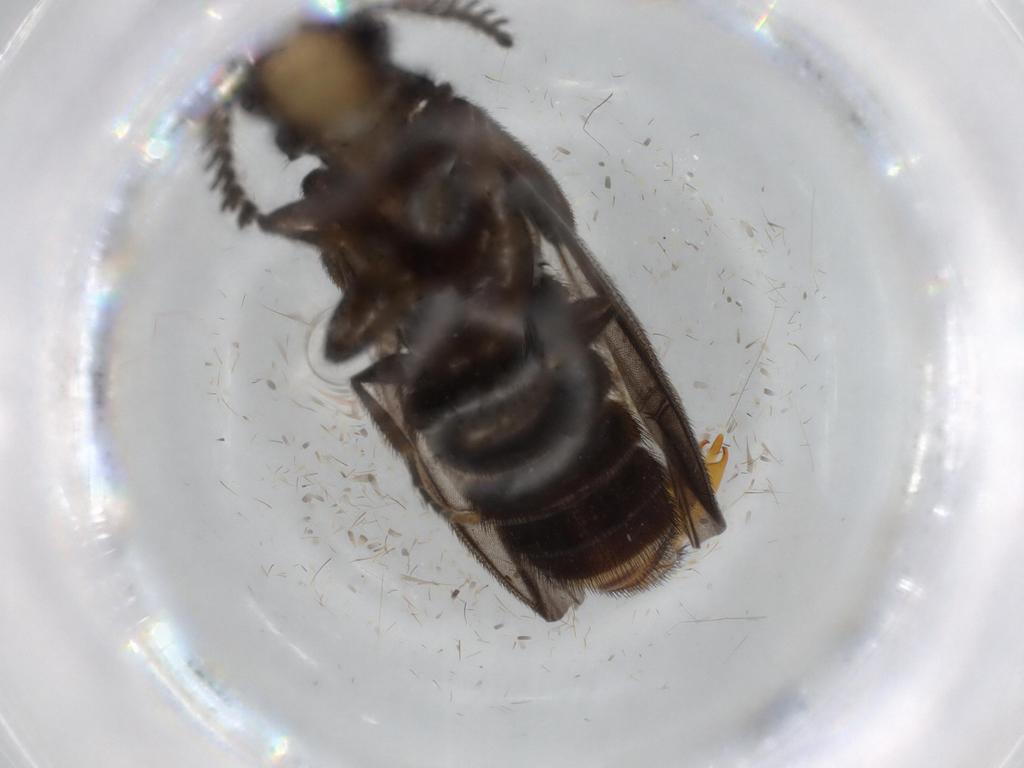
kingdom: Animalia
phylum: Arthropoda
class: Insecta
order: Coleoptera
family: Phengodidae
